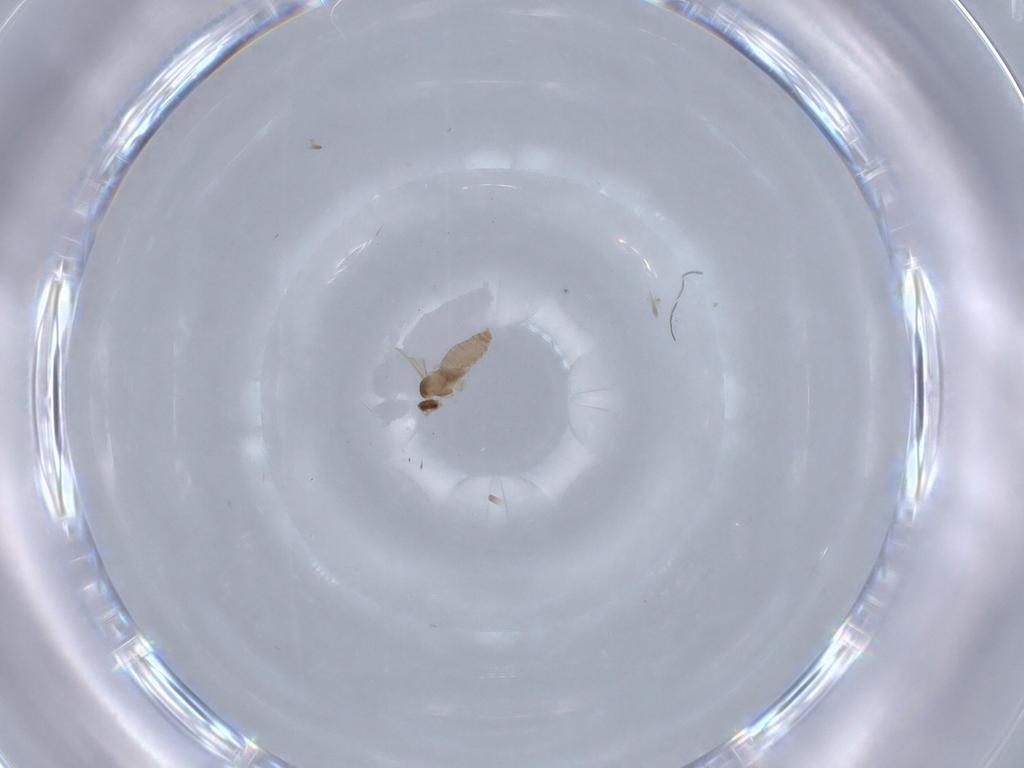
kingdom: Animalia
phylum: Arthropoda
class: Insecta
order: Diptera
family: Cecidomyiidae
